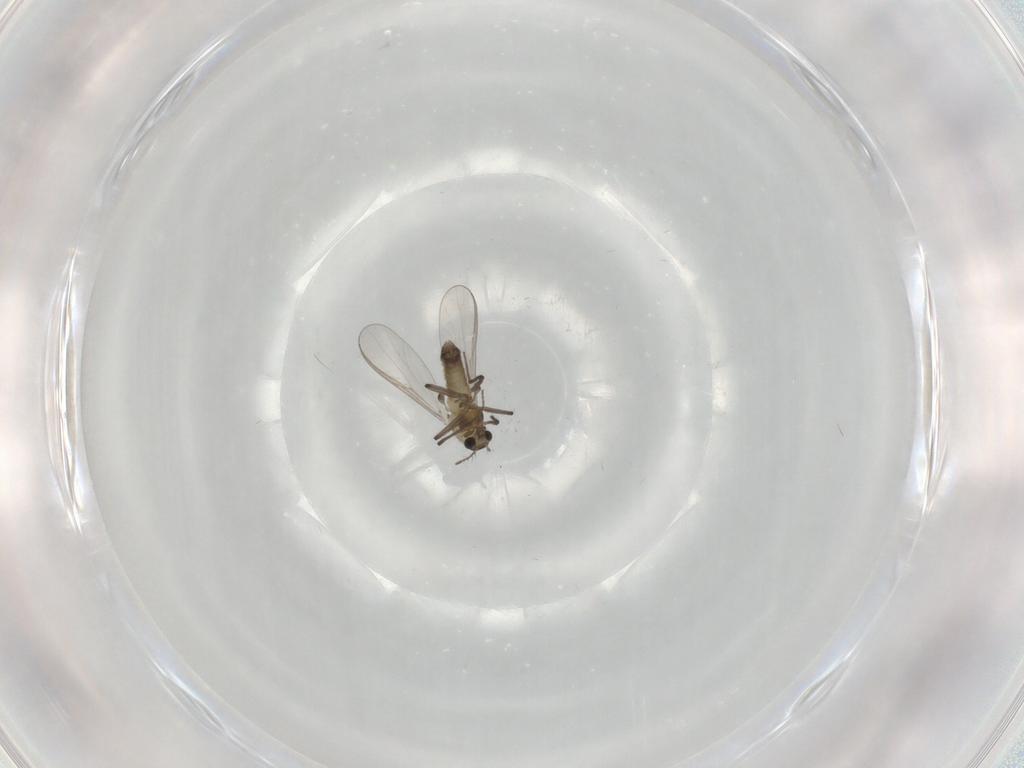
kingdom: Animalia
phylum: Arthropoda
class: Insecta
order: Diptera
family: Chironomidae
